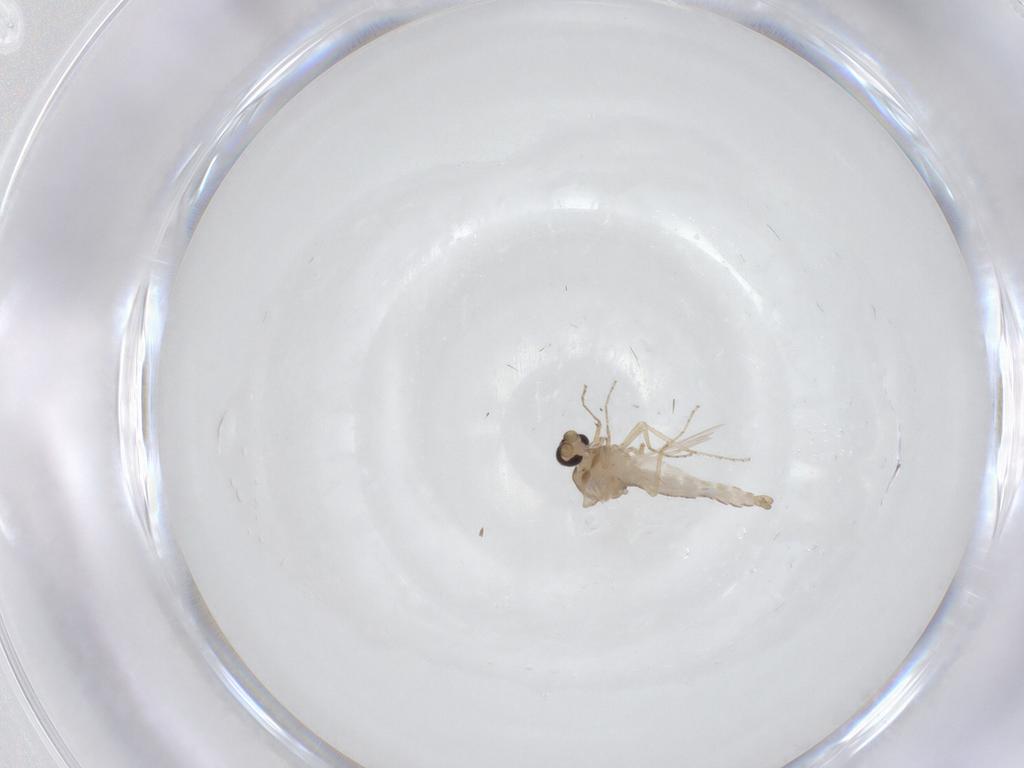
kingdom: Animalia
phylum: Arthropoda
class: Insecta
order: Diptera
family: Ceratopogonidae
